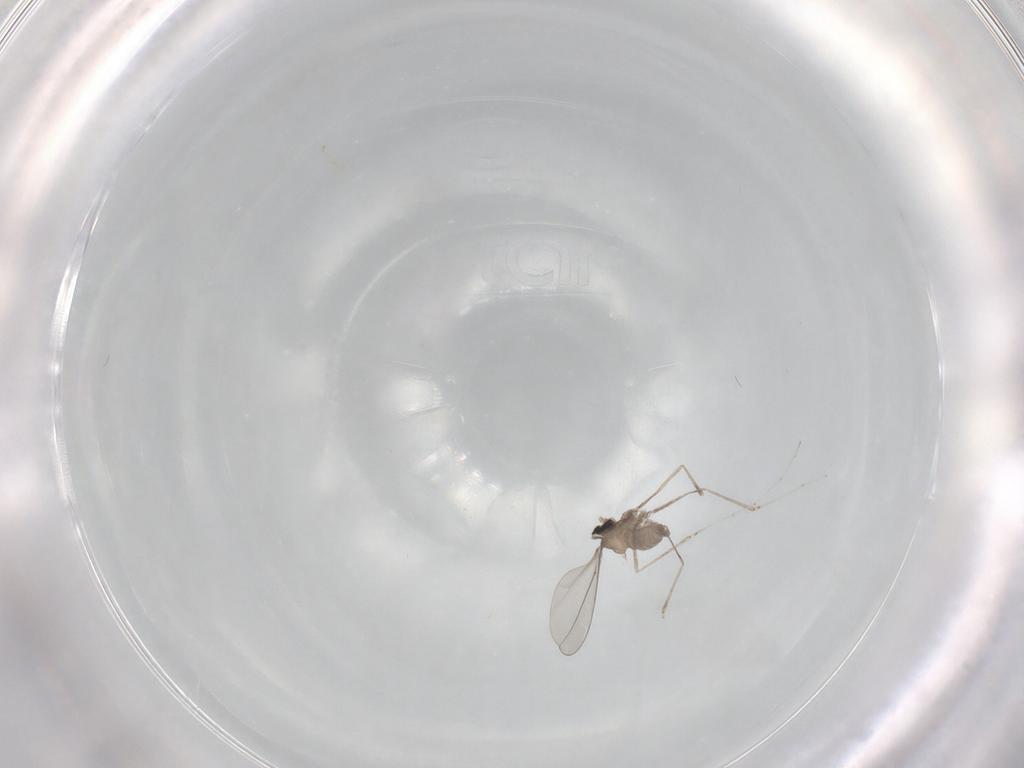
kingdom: Animalia
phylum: Arthropoda
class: Insecta
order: Diptera
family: Cecidomyiidae
